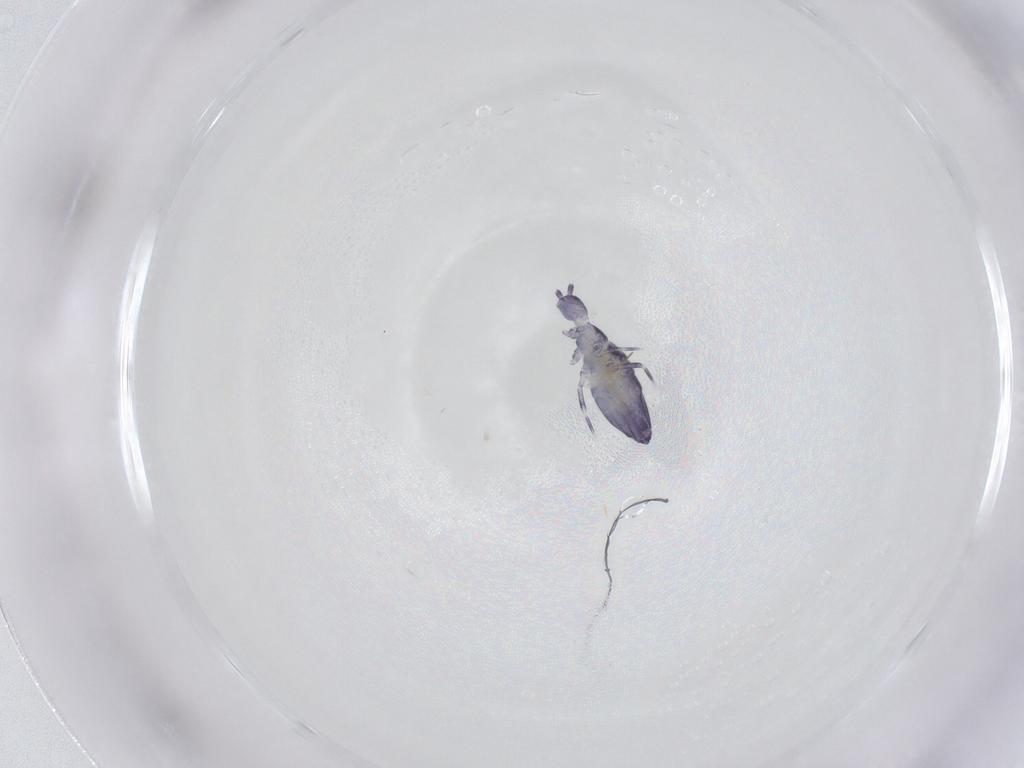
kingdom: Animalia
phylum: Arthropoda
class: Collembola
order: Entomobryomorpha
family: Entomobryidae
